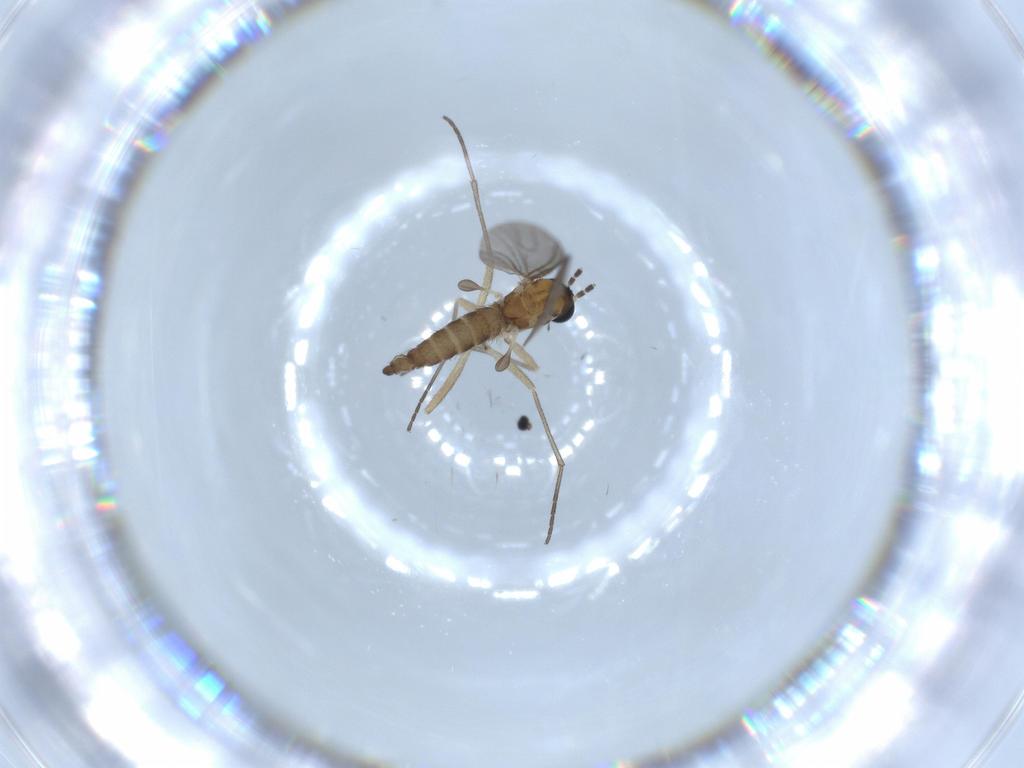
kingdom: Animalia
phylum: Arthropoda
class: Insecta
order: Diptera
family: Sciaridae
